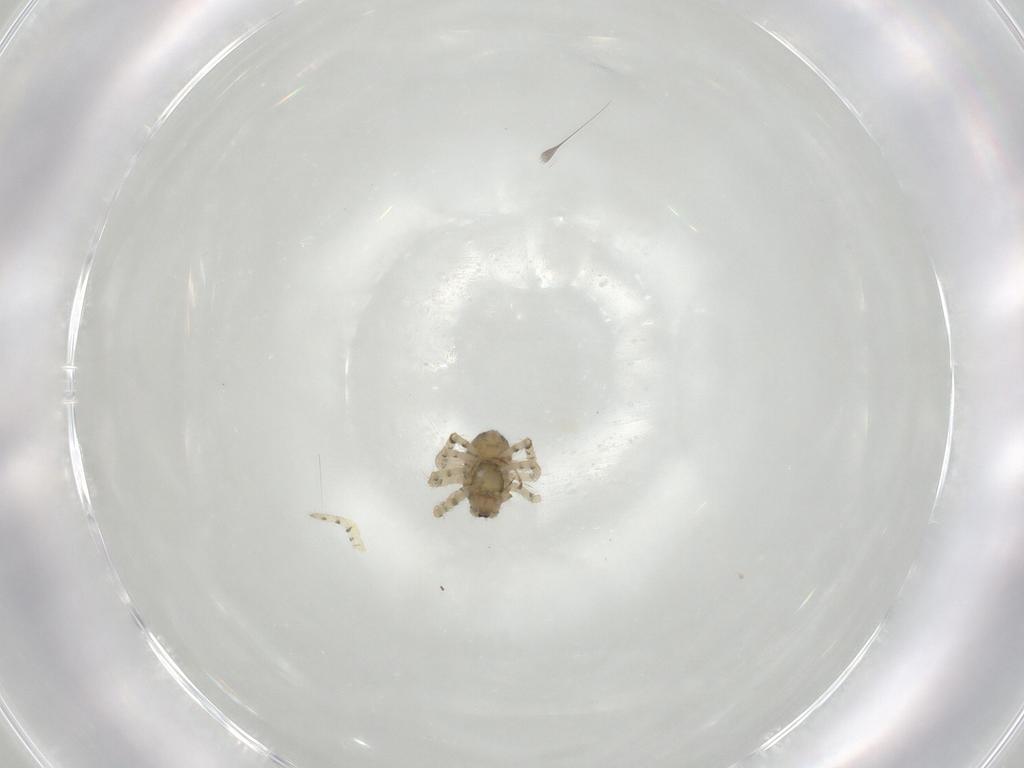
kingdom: Animalia
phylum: Arthropoda
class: Arachnida
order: Araneae
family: Theridiidae
